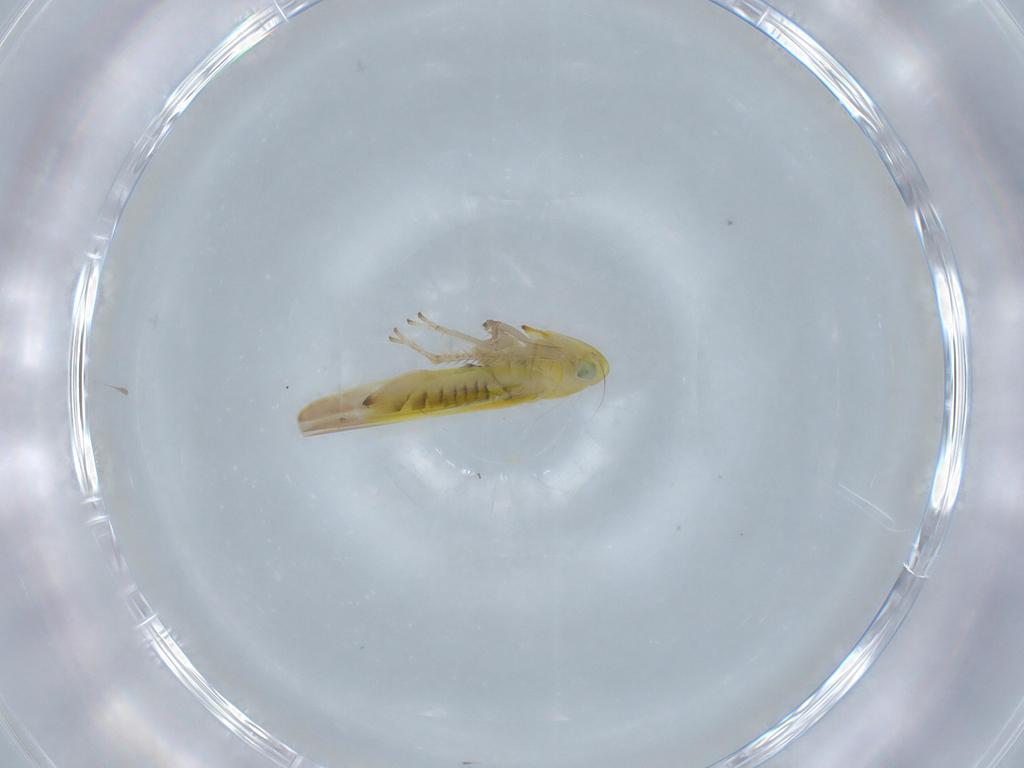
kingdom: Animalia
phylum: Arthropoda
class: Insecta
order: Hemiptera
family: Cicadellidae
